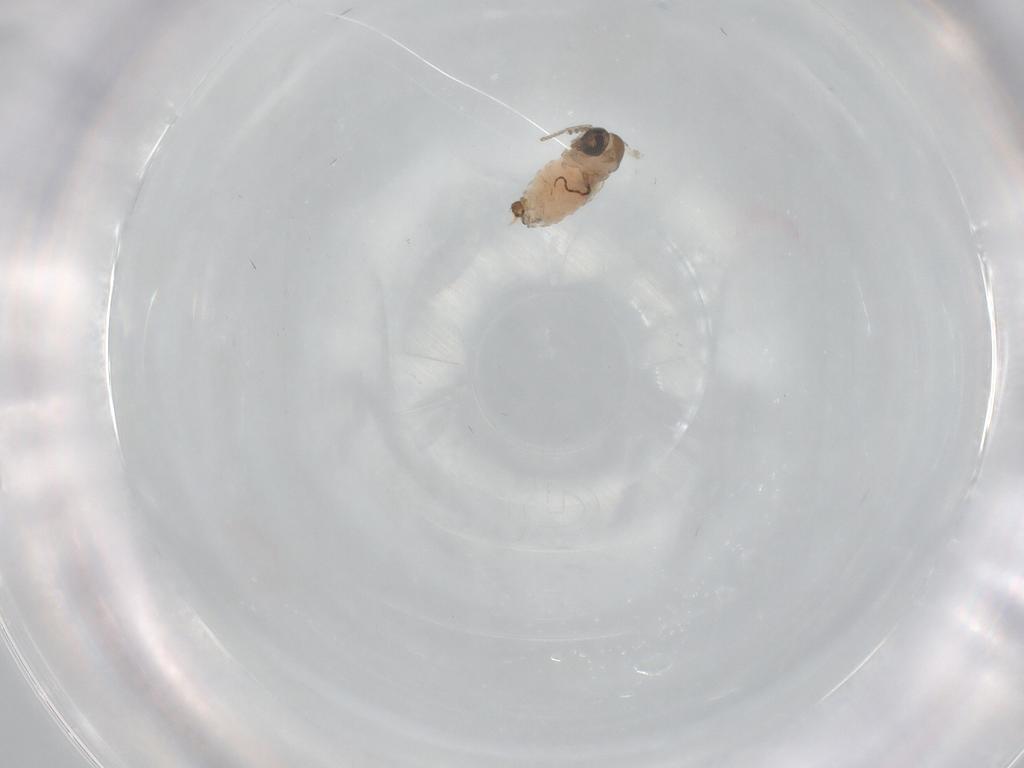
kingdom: Animalia
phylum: Arthropoda
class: Insecta
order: Diptera
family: Psychodidae
